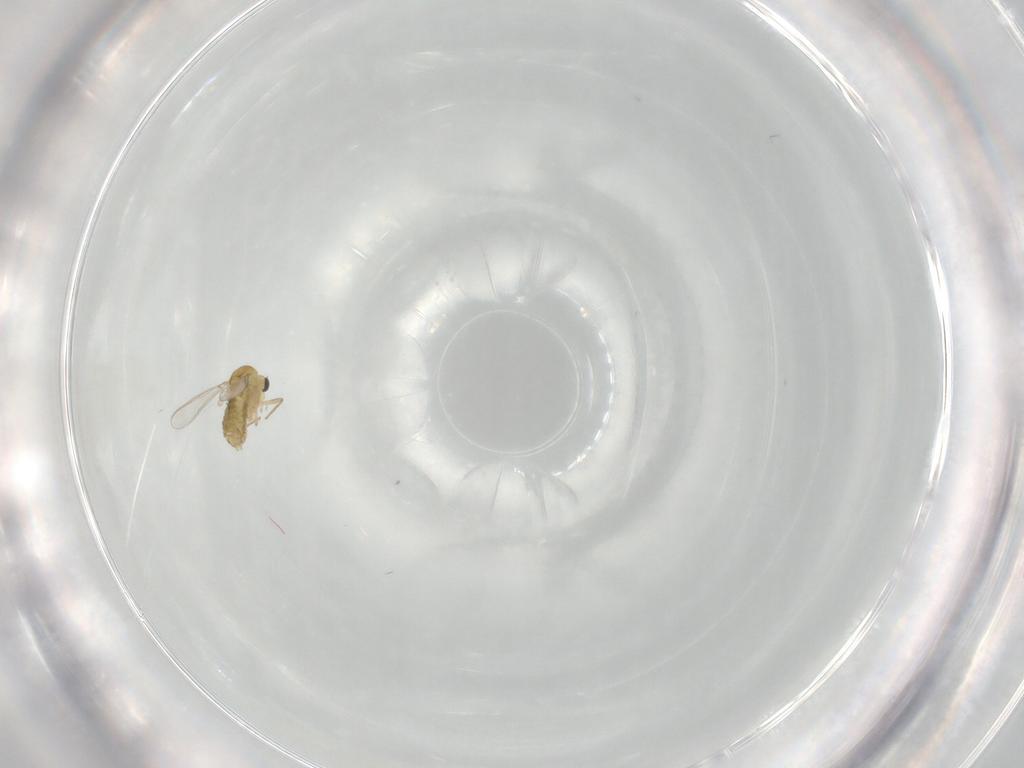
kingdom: Animalia
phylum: Arthropoda
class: Insecta
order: Diptera
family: Chironomidae
